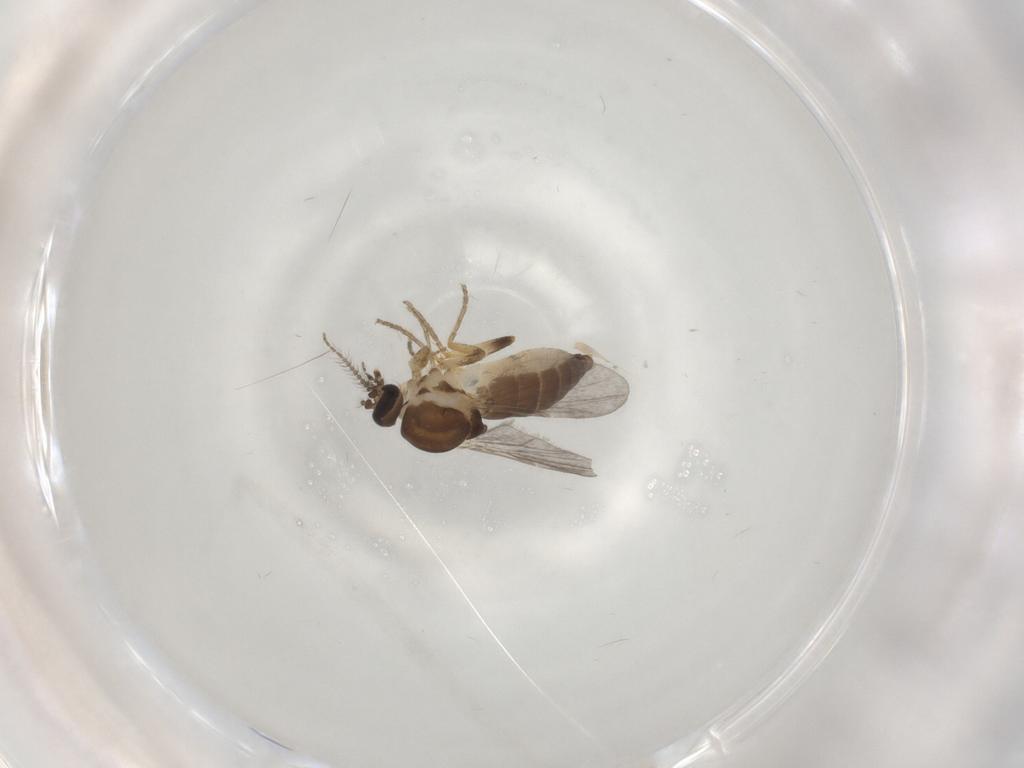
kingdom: Animalia
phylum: Arthropoda
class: Insecta
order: Diptera
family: Ceratopogonidae
